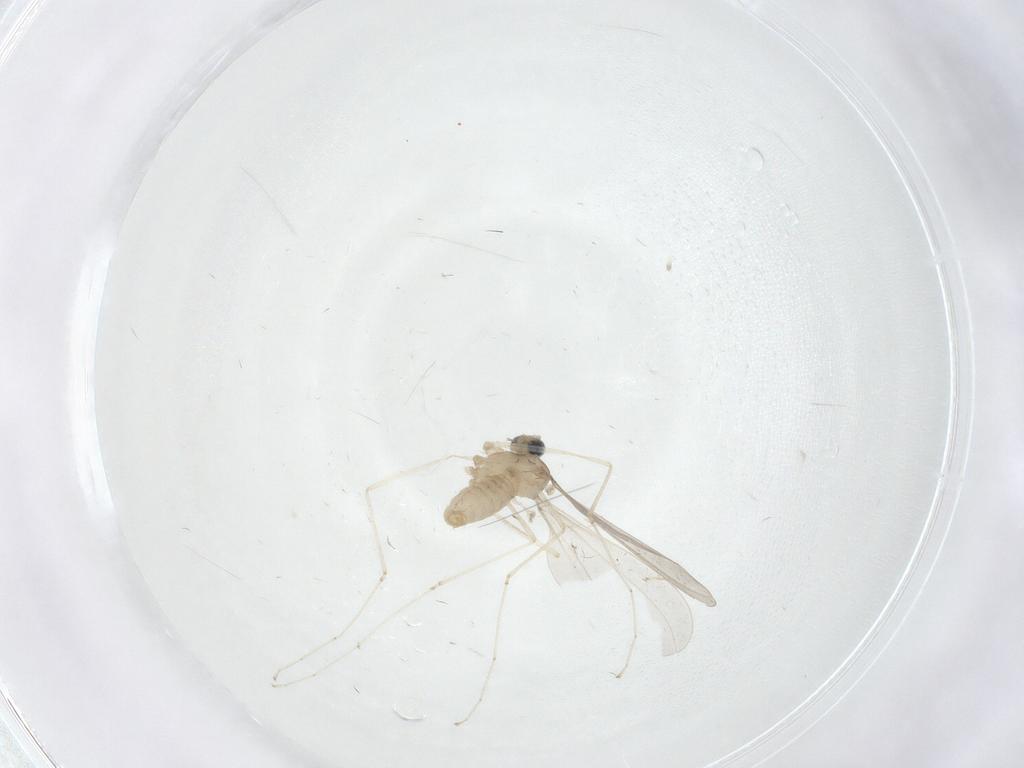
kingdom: Animalia
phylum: Arthropoda
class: Insecta
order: Diptera
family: Cecidomyiidae
